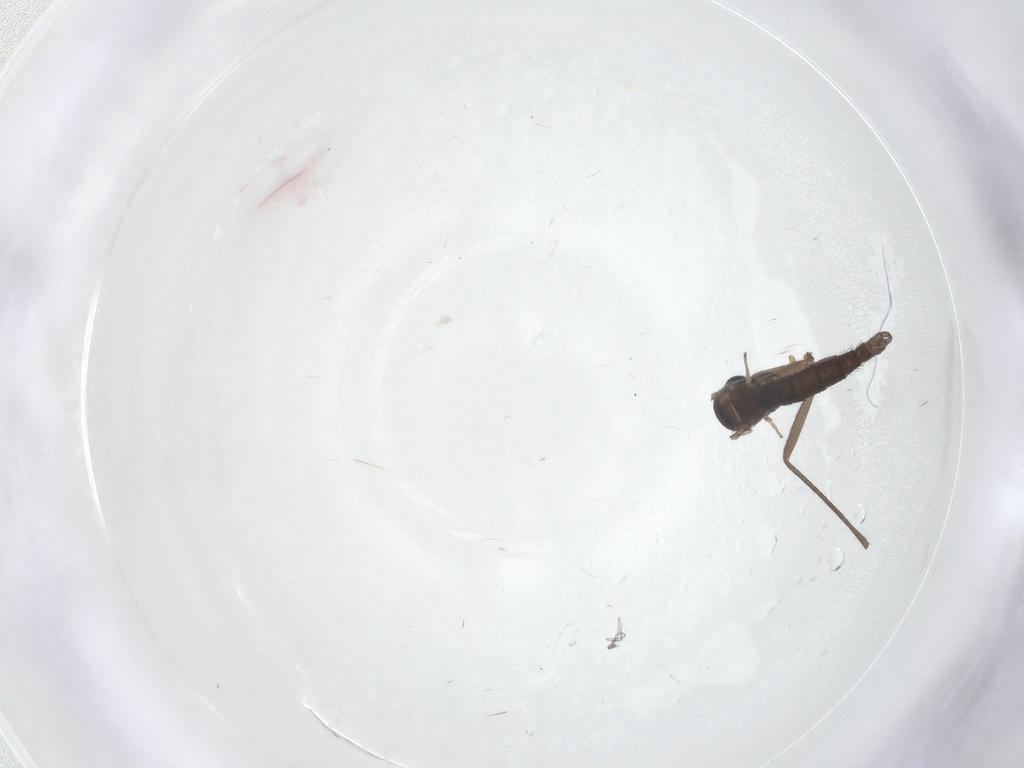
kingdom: Animalia
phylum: Arthropoda
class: Insecta
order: Diptera
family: Sciaridae
